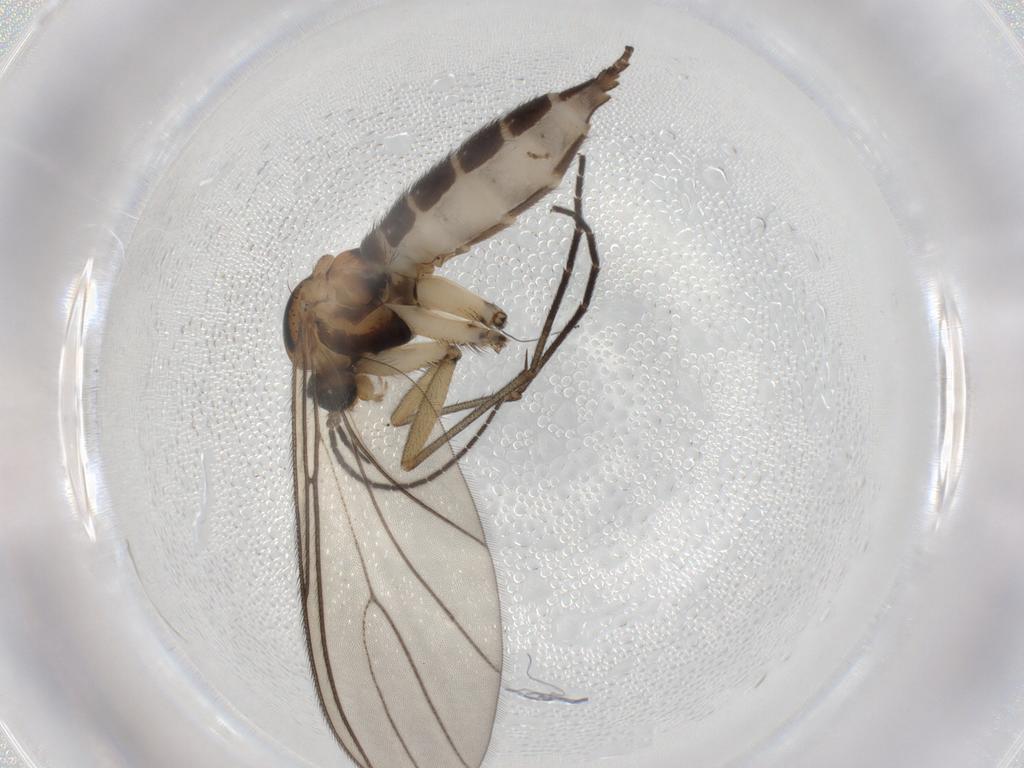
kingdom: Animalia
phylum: Arthropoda
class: Insecta
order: Diptera
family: Sciaridae
